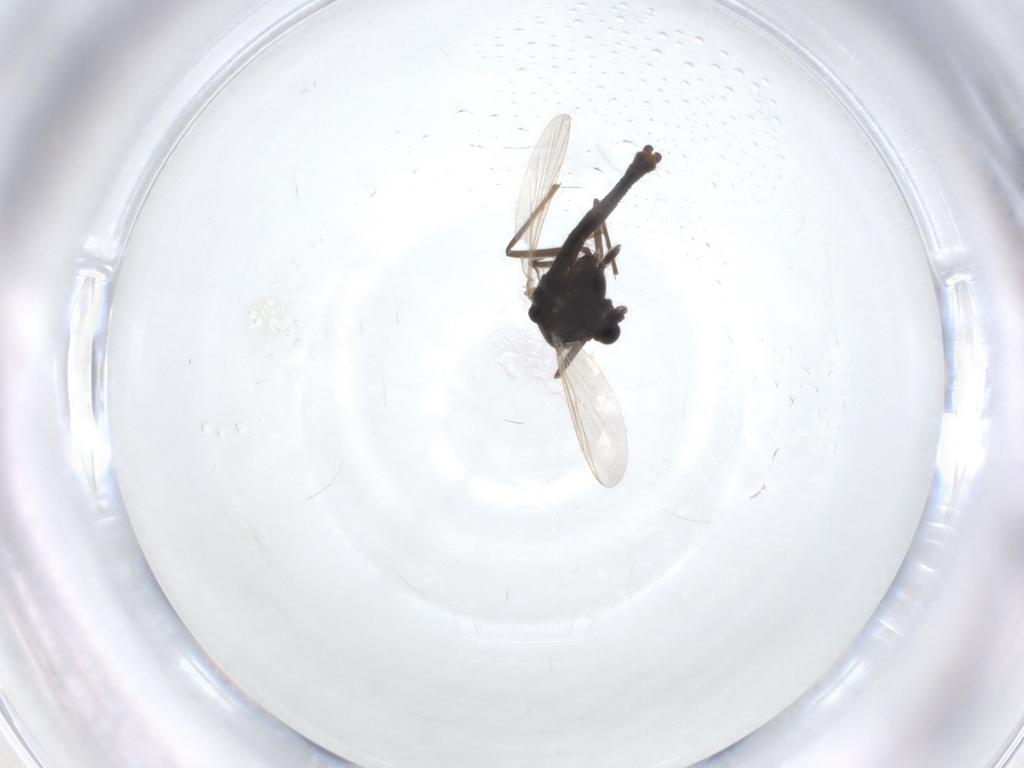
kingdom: Animalia
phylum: Arthropoda
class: Insecta
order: Diptera
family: Chironomidae
